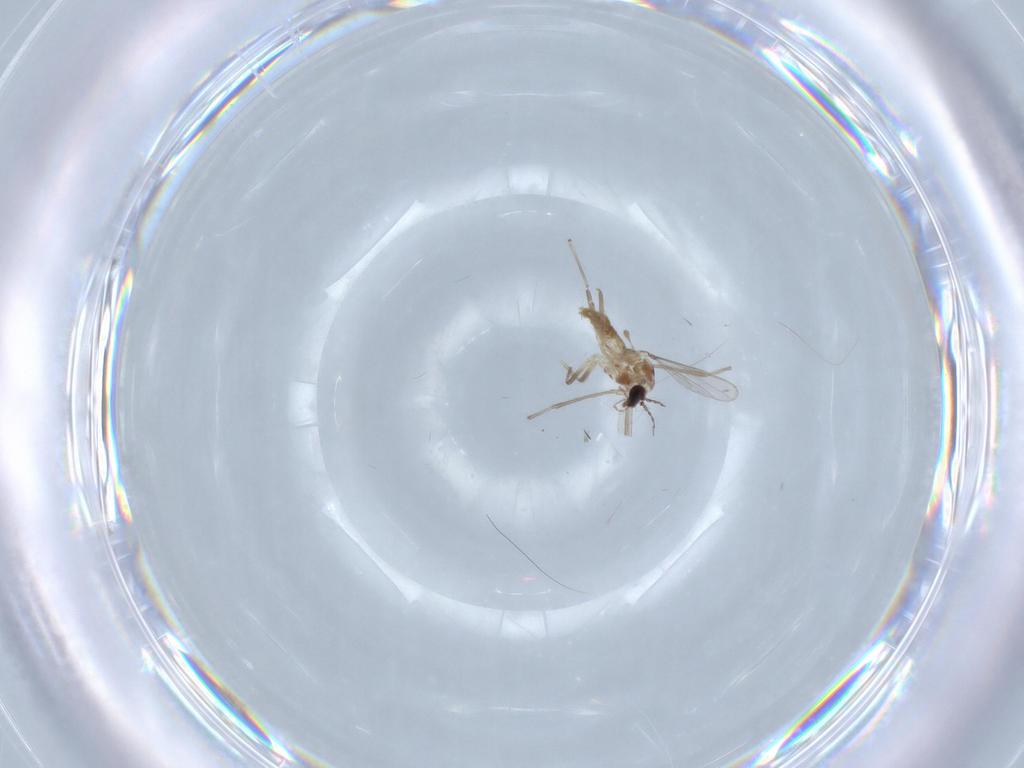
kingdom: Animalia
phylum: Arthropoda
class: Insecta
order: Diptera
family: Chironomidae
